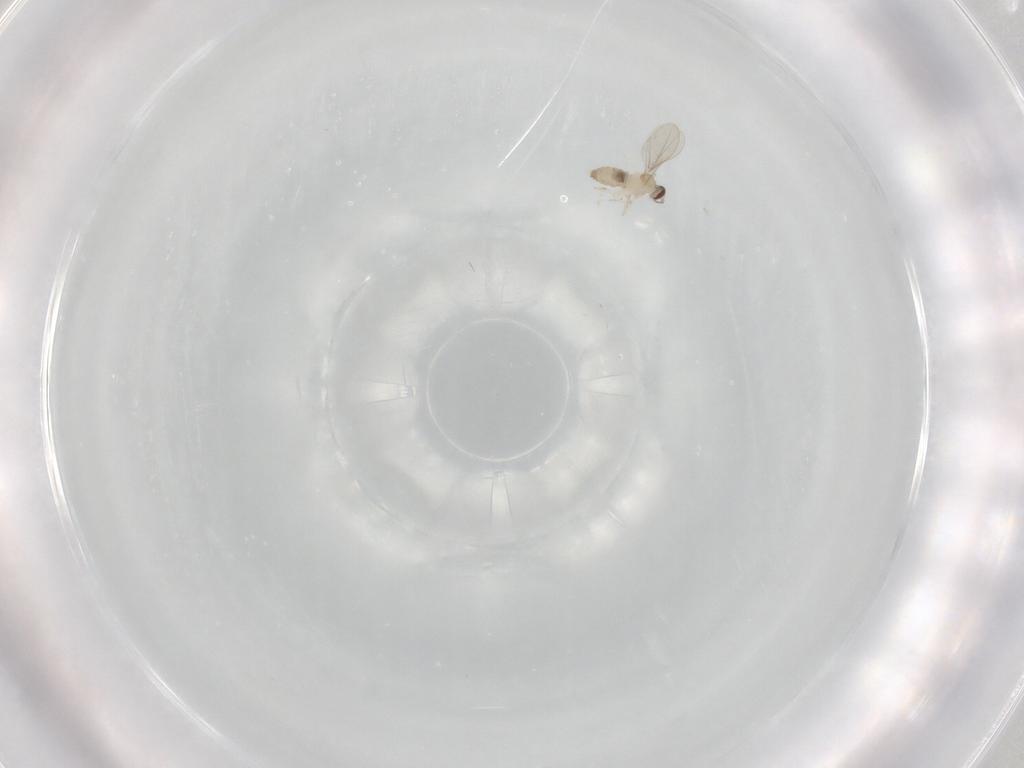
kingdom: Animalia
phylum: Arthropoda
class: Insecta
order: Diptera
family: Cecidomyiidae
